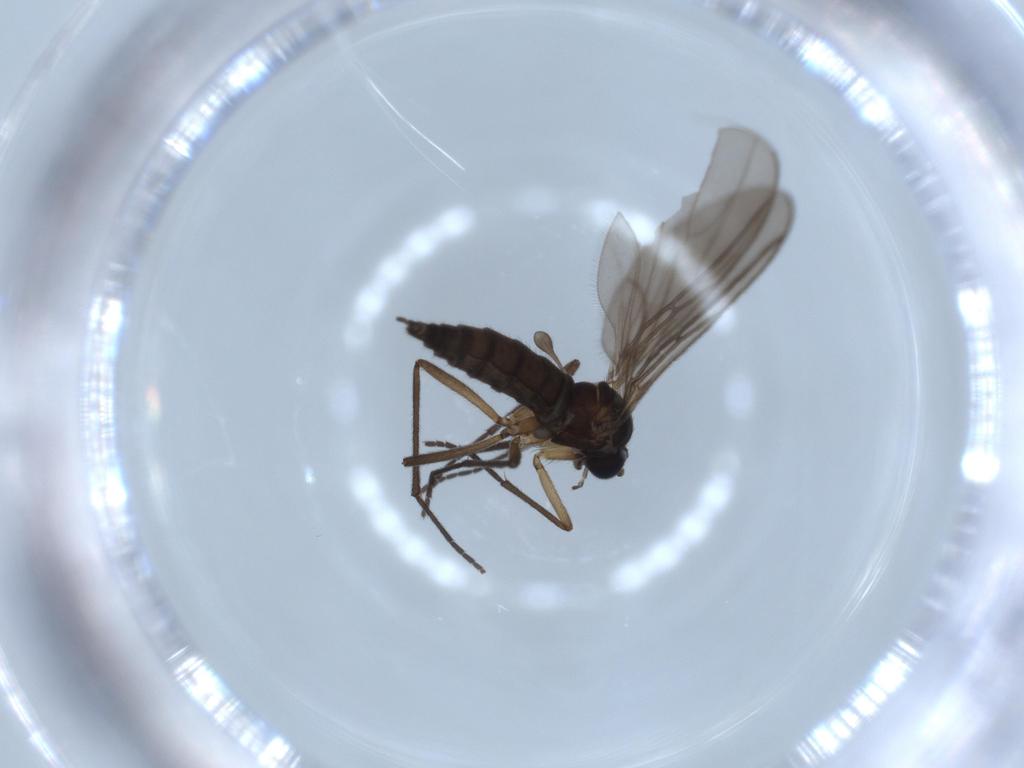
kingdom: Animalia
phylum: Arthropoda
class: Insecta
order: Diptera
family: Sciaridae
